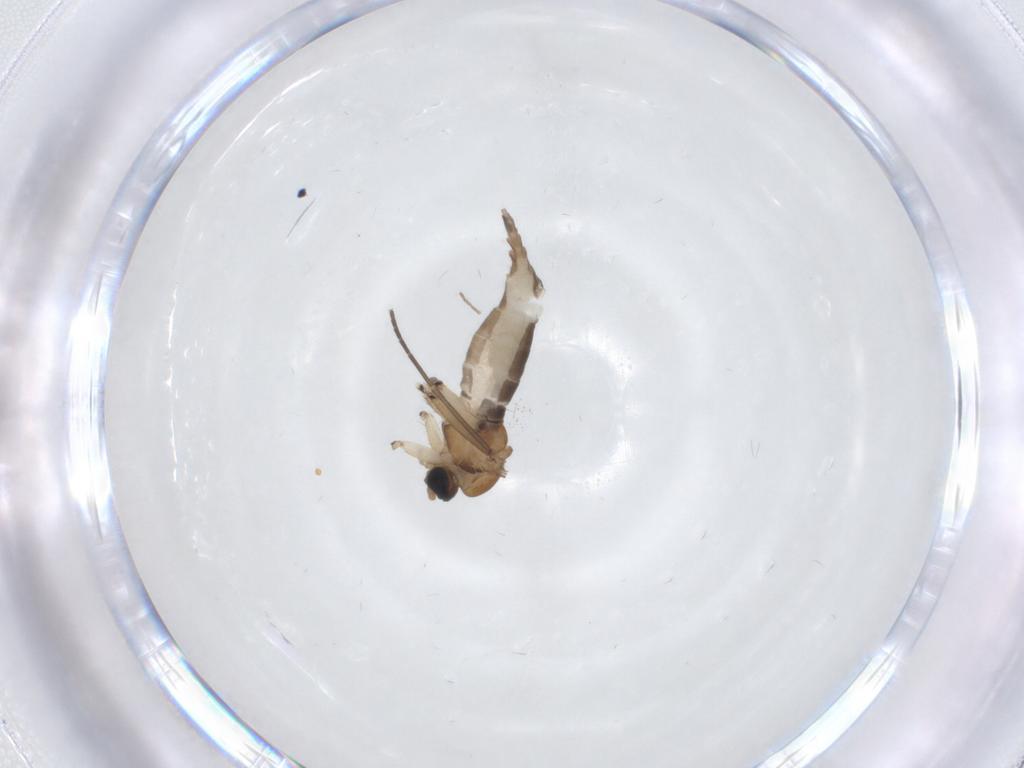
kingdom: Animalia
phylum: Arthropoda
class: Insecta
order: Diptera
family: Sciaridae
